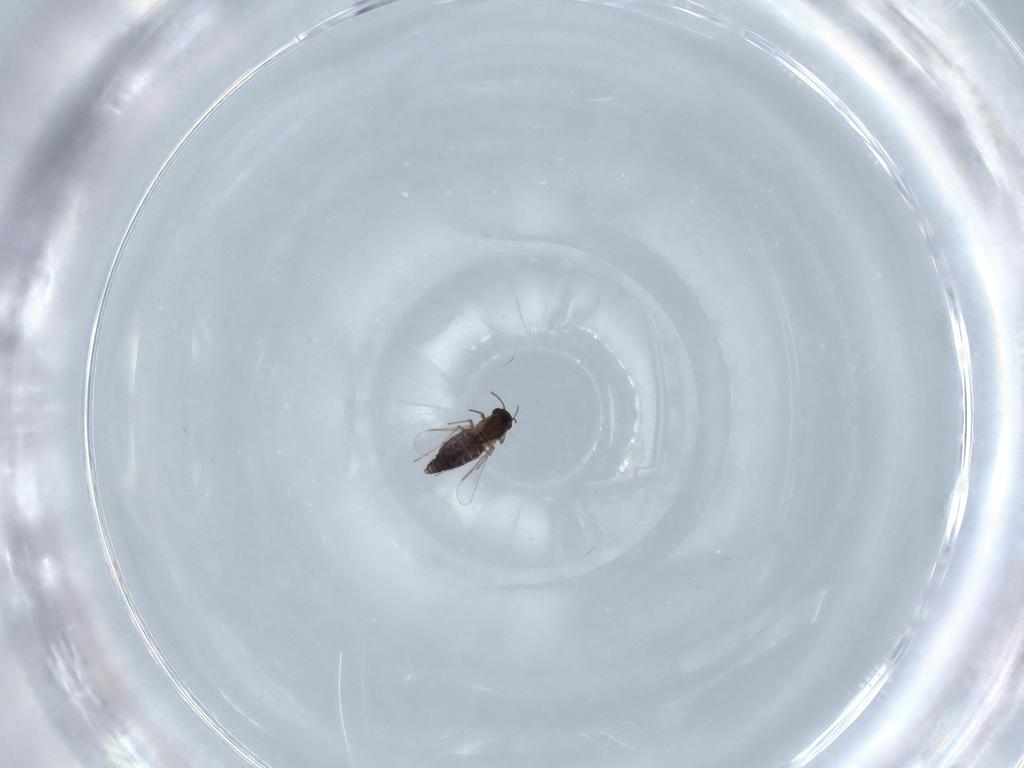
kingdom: Animalia
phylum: Arthropoda
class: Insecta
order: Diptera
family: Chironomidae
